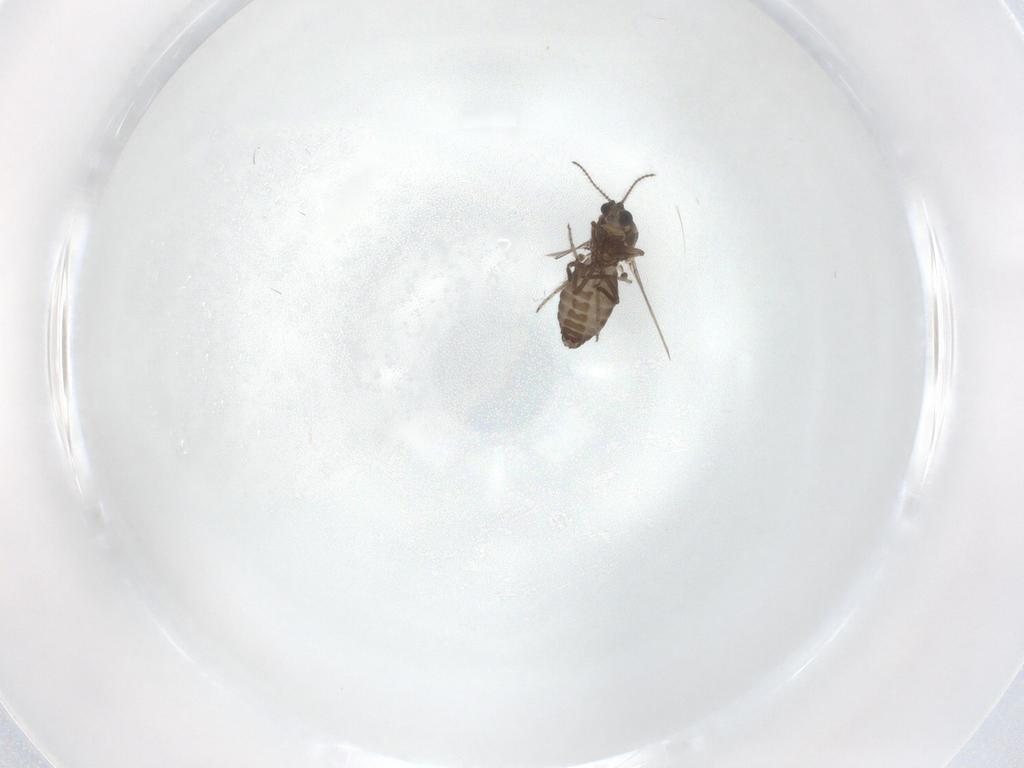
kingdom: Animalia
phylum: Arthropoda
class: Insecta
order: Diptera
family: Ceratopogonidae
